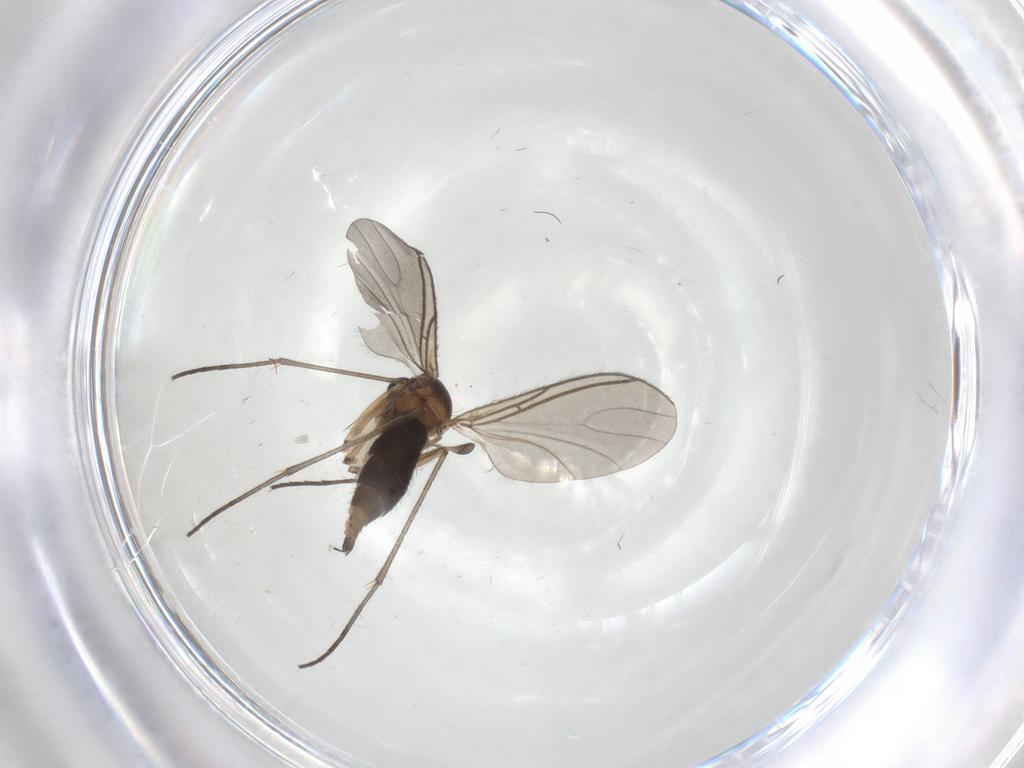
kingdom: Animalia
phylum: Arthropoda
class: Insecta
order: Diptera
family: Sciaridae
